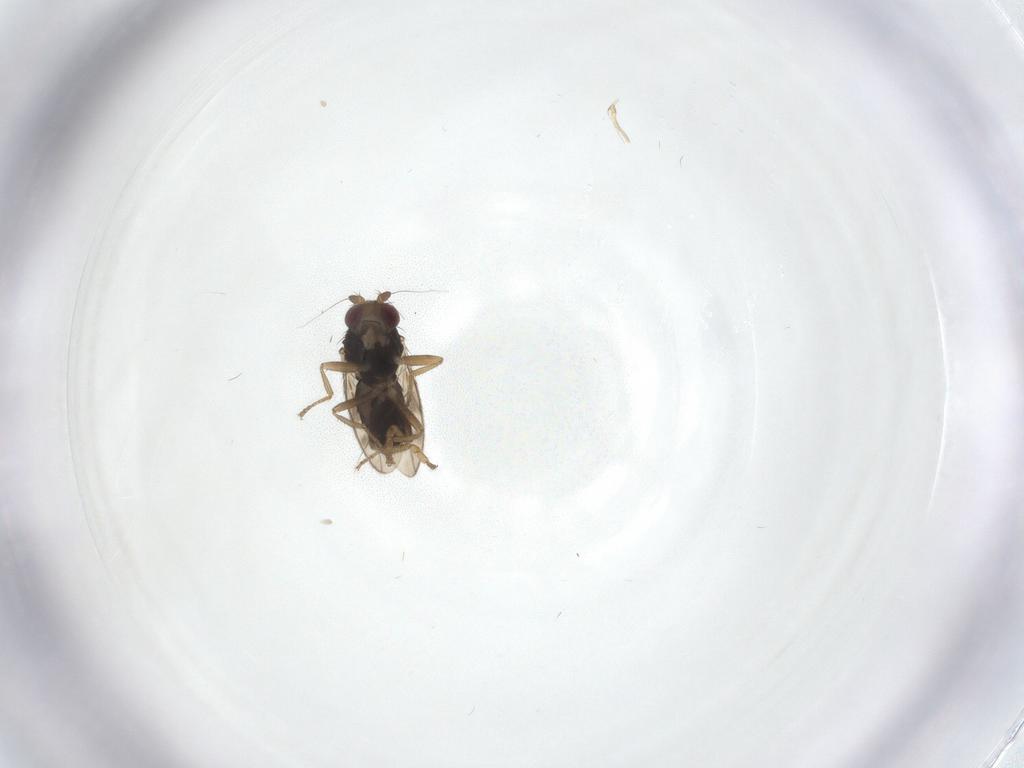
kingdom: Animalia
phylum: Arthropoda
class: Insecta
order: Diptera
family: Sphaeroceridae
